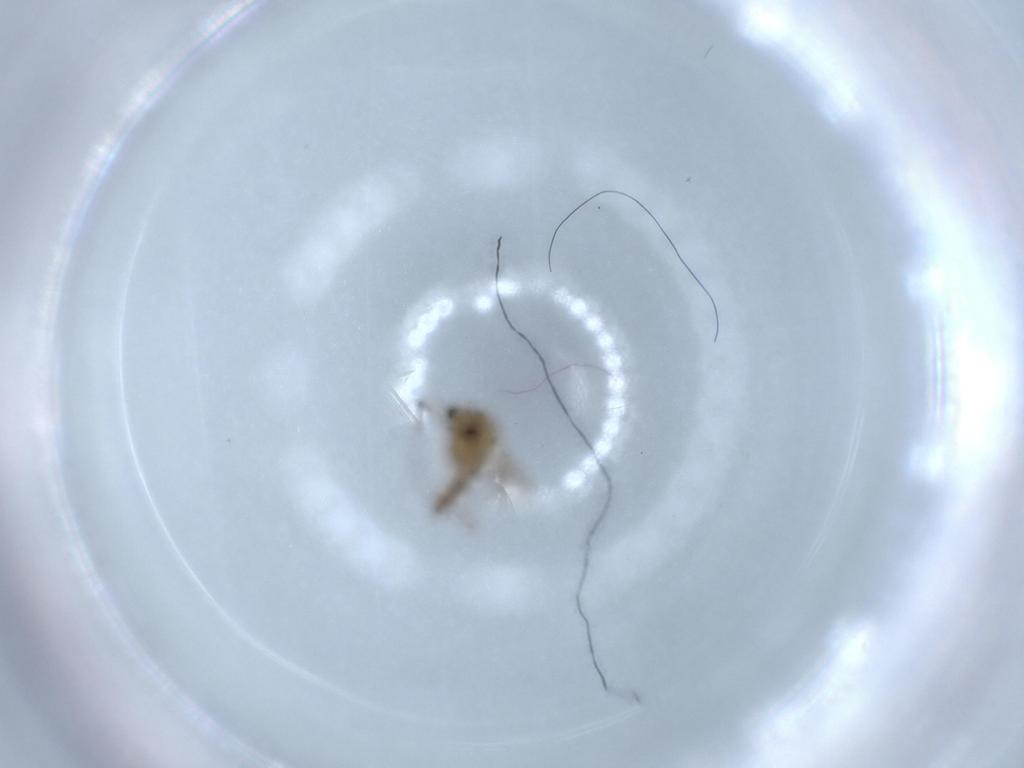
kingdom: Animalia
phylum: Arthropoda
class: Insecta
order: Diptera
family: Chironomidae
